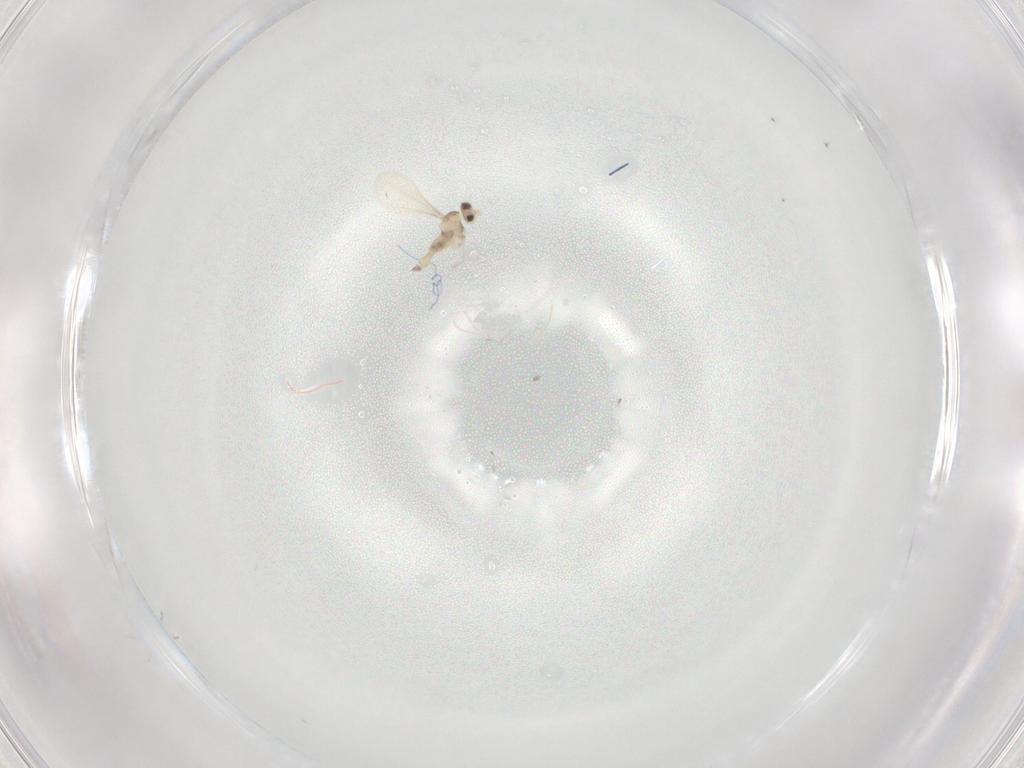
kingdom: Animalia
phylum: Arthropoda
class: Insecta
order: Diptera
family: Cecidomyiidae
